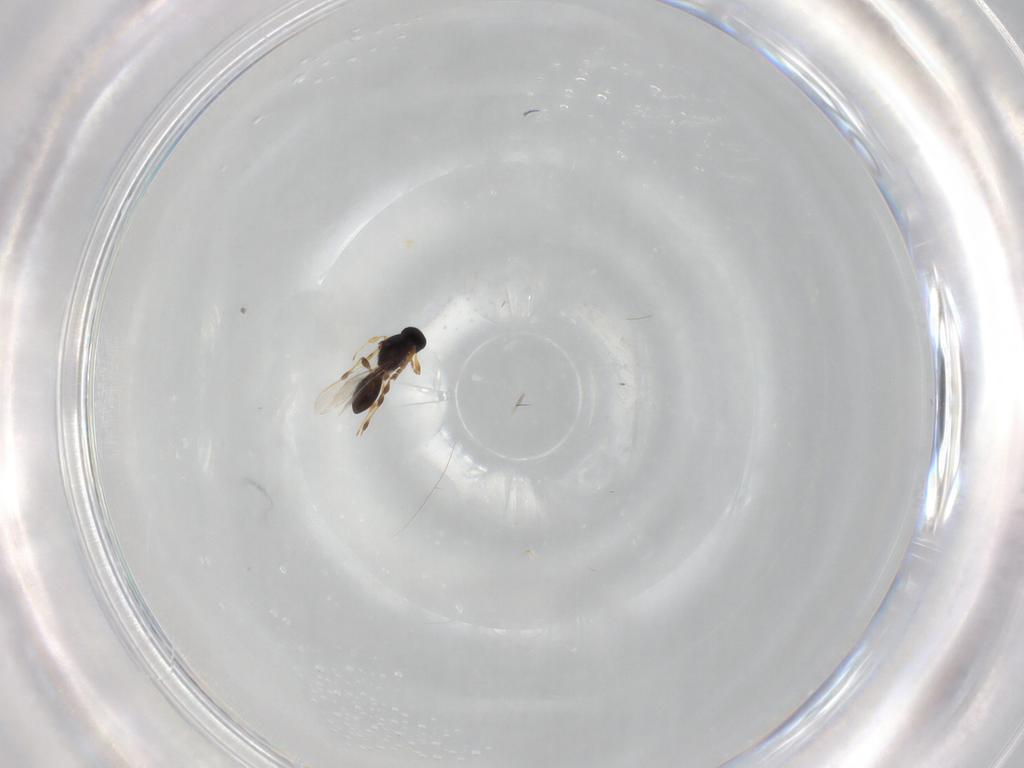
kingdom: Animalia
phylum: Arthropoda
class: Insecta
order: Hymenoptera
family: Platygastridae
